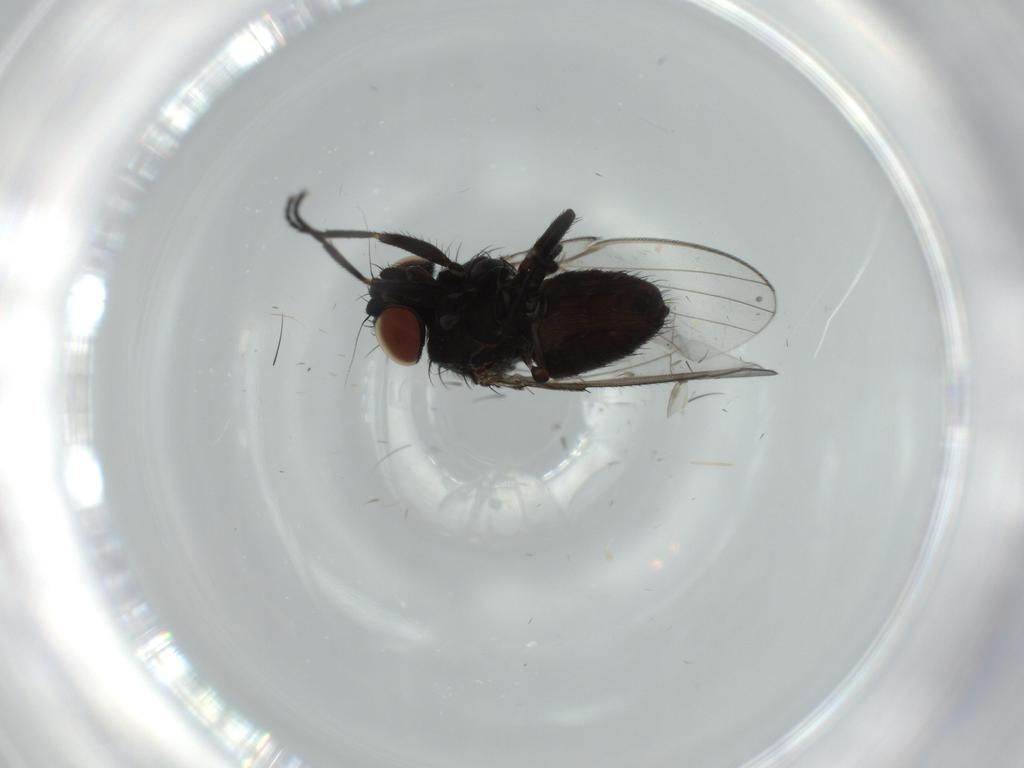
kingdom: Animalia
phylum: Arthropoda
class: Insecta
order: Diptera
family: Milichiidae
